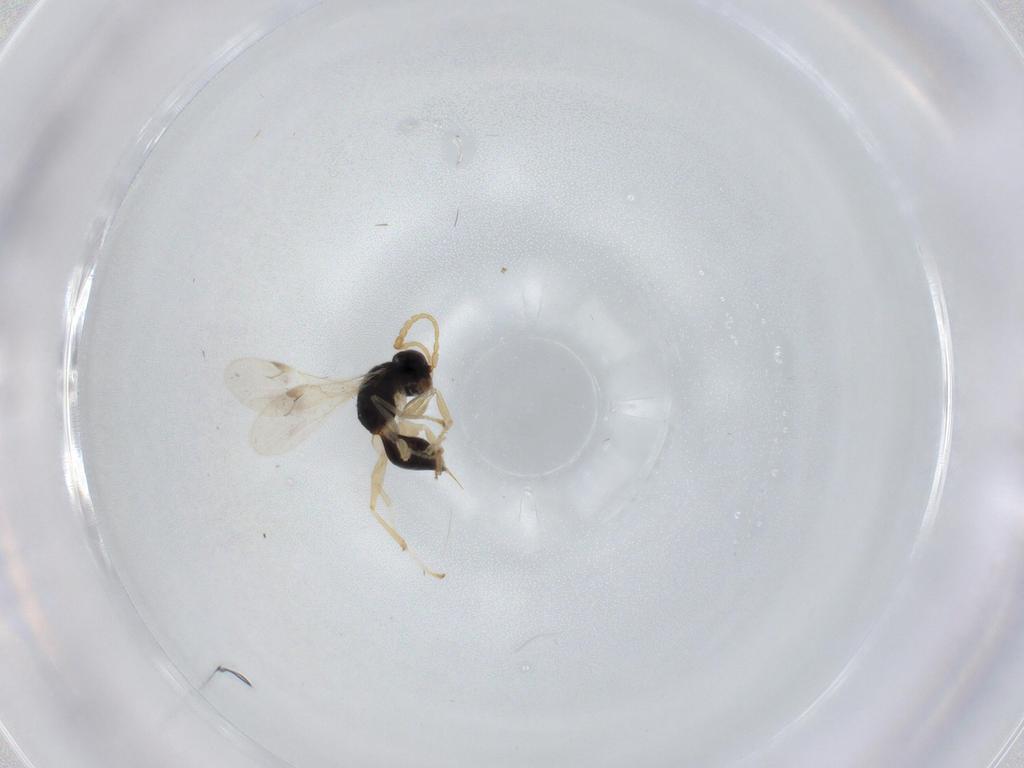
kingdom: Animalia
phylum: Arthropoda
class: Insecta
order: Hymenoptera
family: Dryinidae
